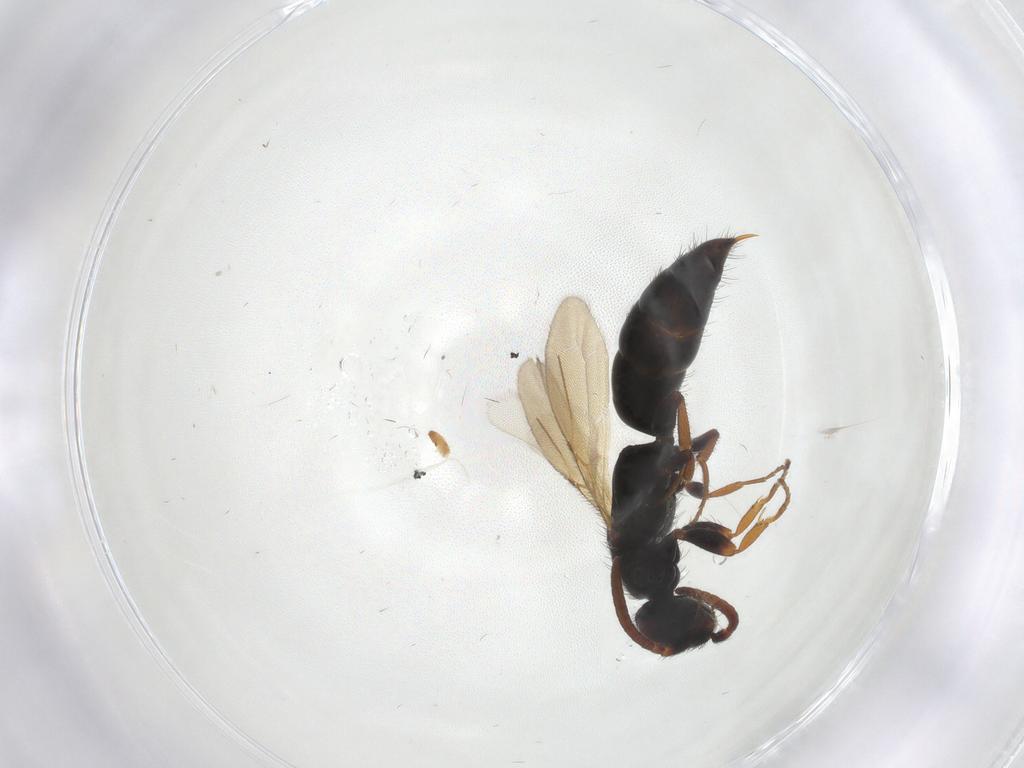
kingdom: Animalia
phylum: Arthropoda
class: Insecta
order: Hymenoptera
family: Bethylidae
